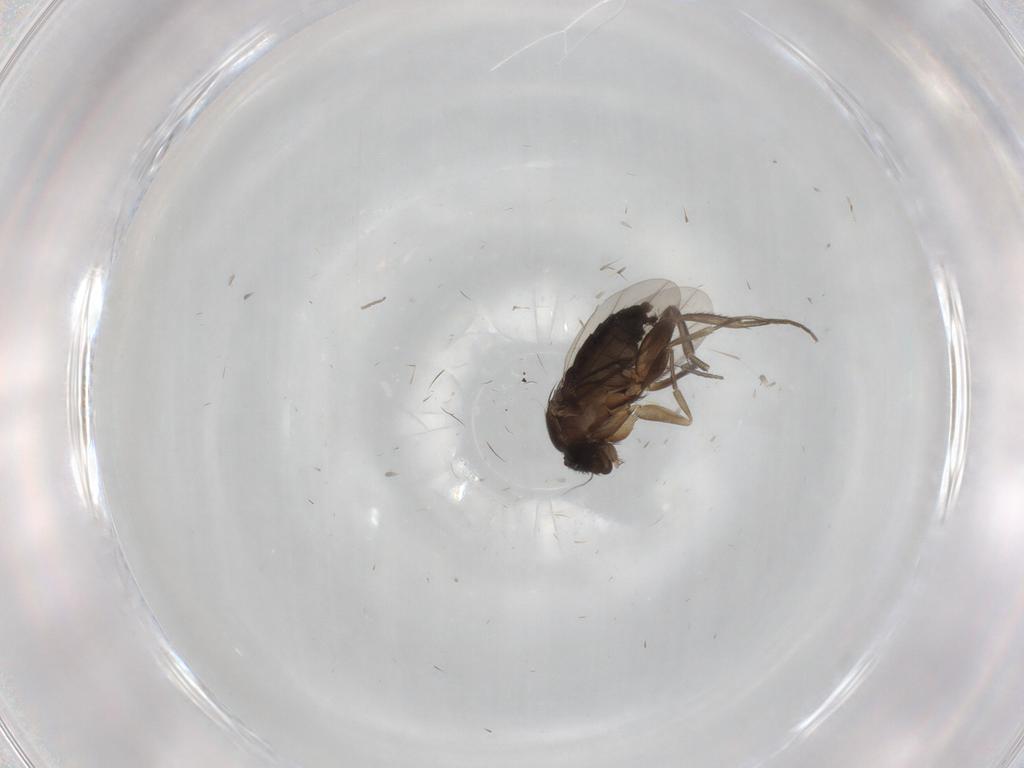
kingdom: Animalia
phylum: Arthropoda
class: Insecta
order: Diptera
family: Phoridae
